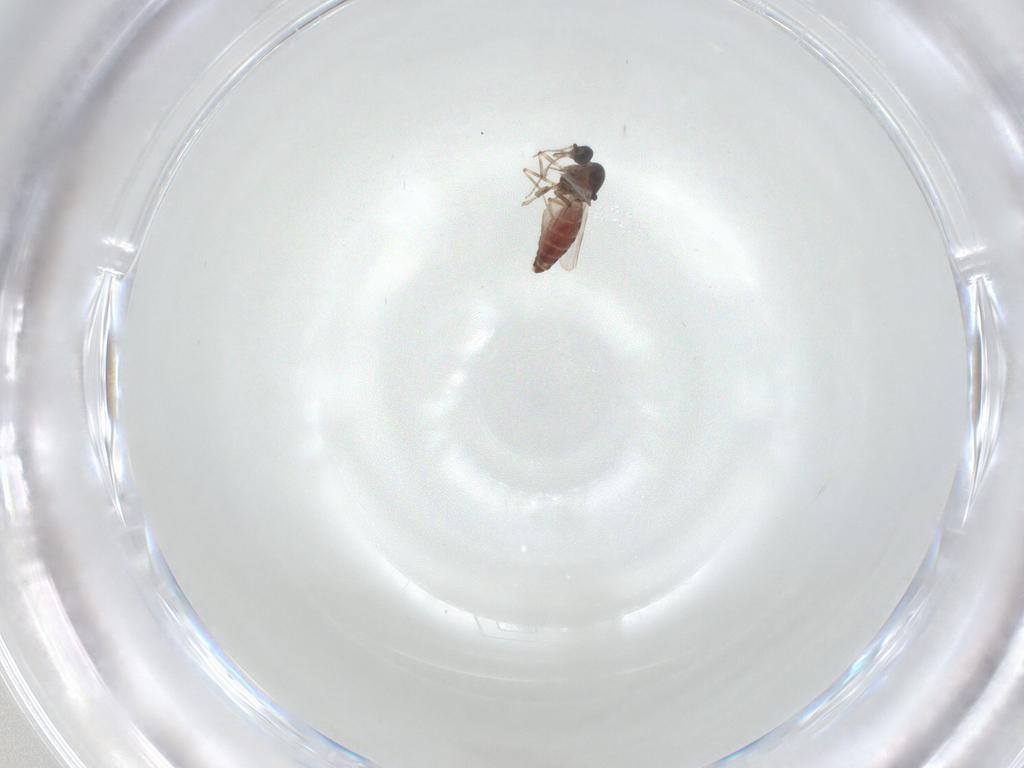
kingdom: Animalia
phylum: Arthropoda
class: Insecta
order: Diptera
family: Cecidomyiidae
